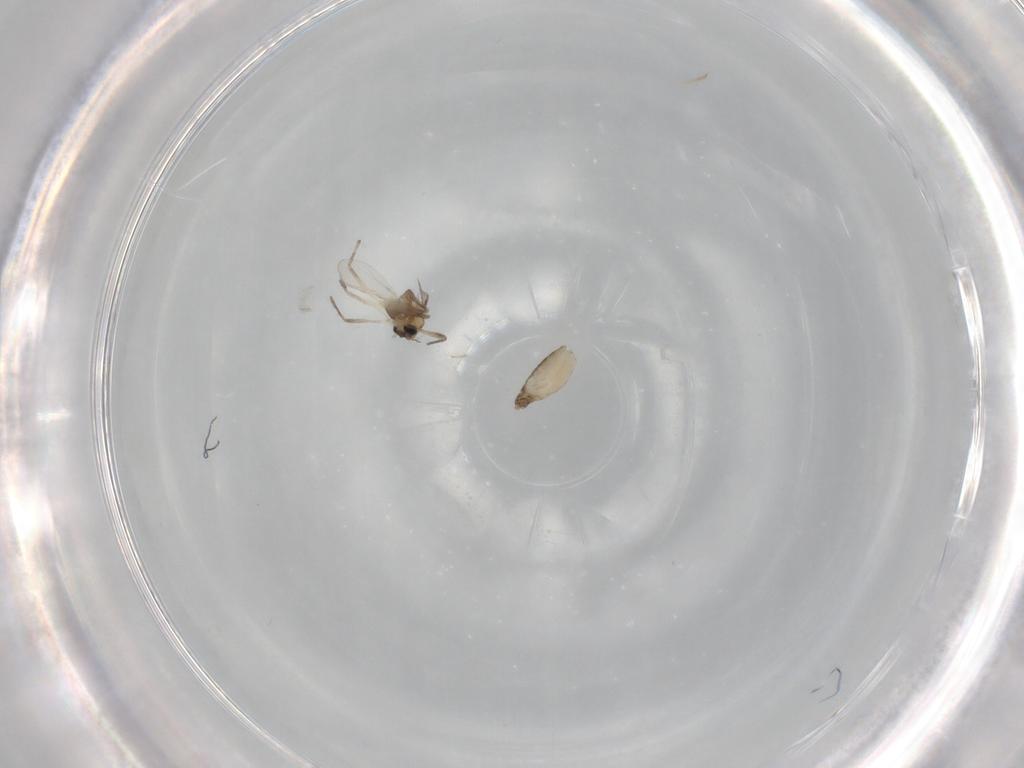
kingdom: Animalia
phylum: Arthropoda
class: Insecta
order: Diptera
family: Chironomidae
